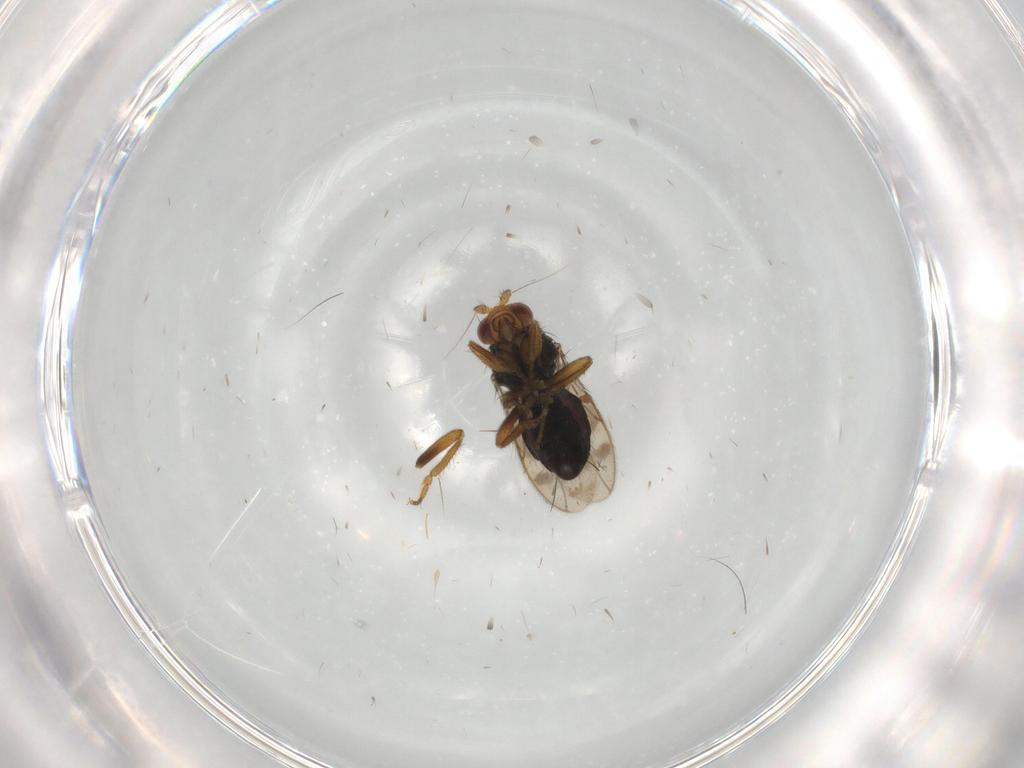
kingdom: Animalia
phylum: Arthropoda
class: Insecta
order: Diptera
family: Sphaeroceridae
